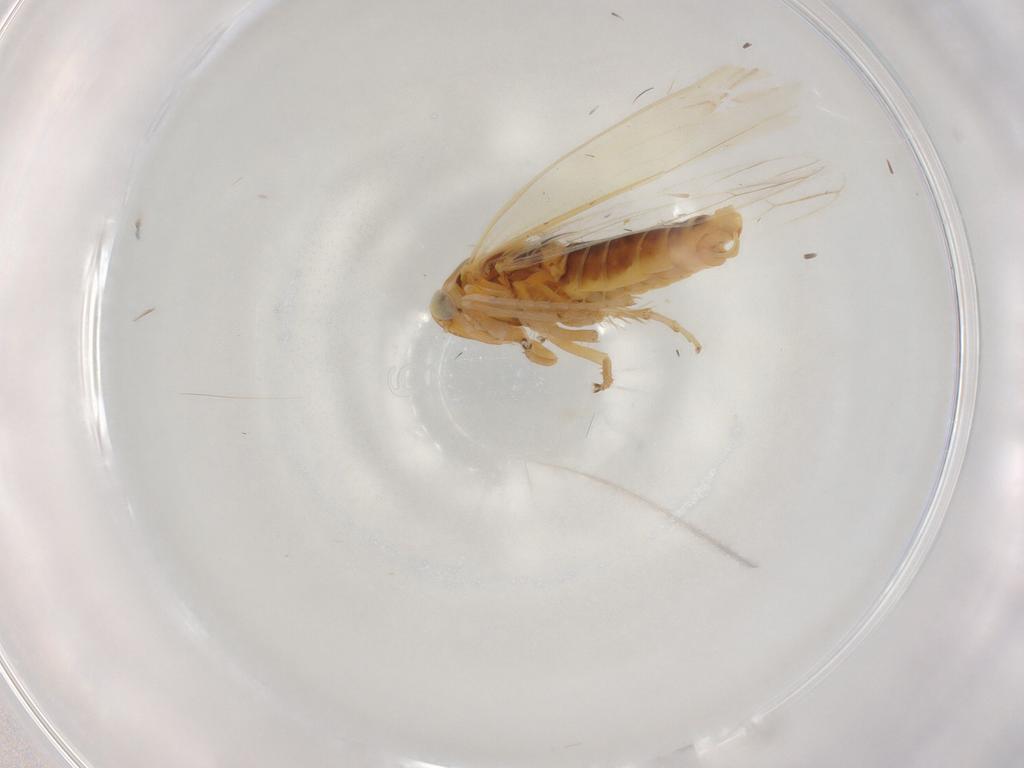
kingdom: Animalia
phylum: Arthropoda
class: Insecta
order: Hemiptera
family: Cicadellidae
